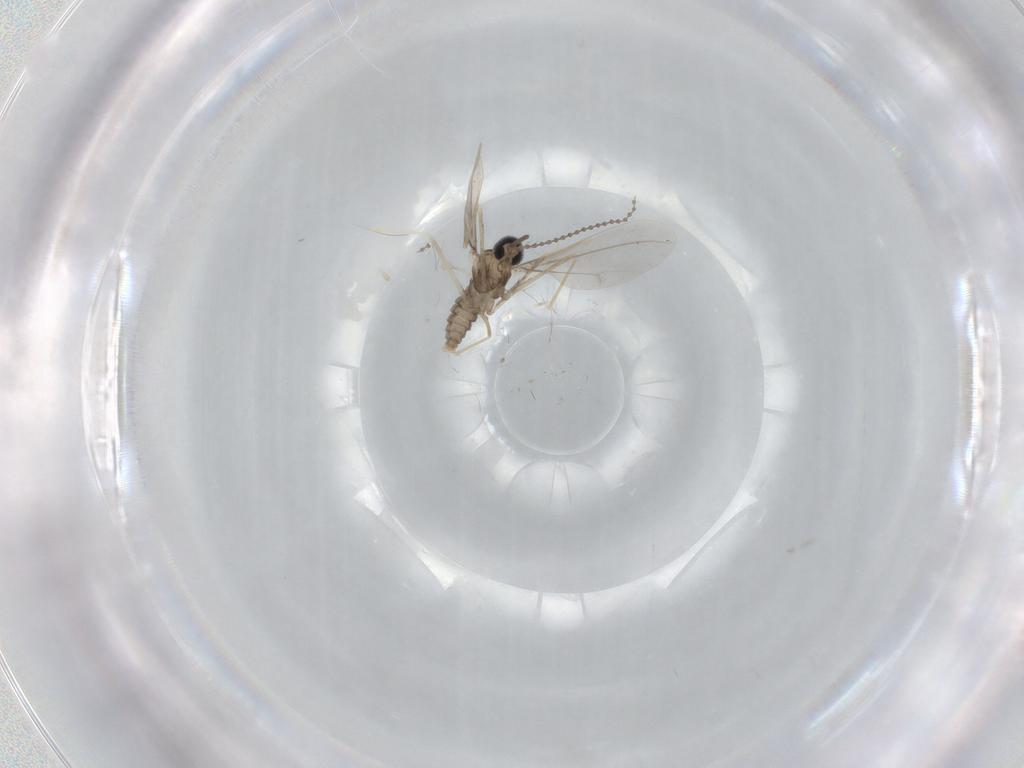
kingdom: Animalia
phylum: Arthropoda
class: Insecta
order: Diptera
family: Cecidomyiidae
